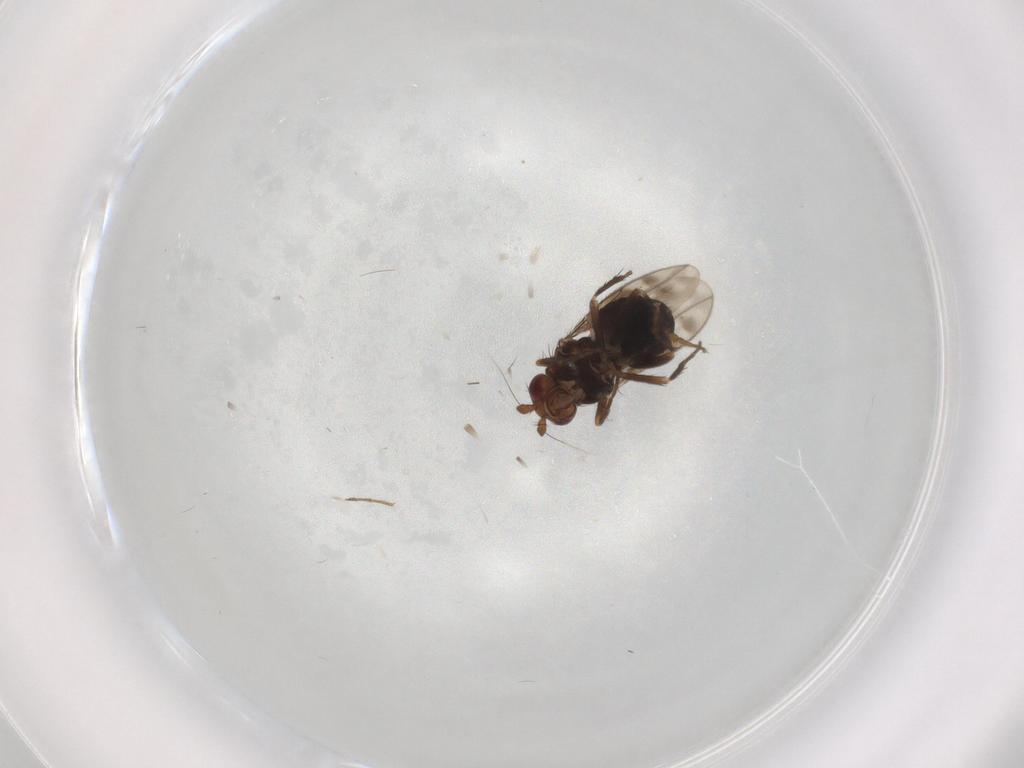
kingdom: Animalia
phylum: Arthropoda
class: Insecta
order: Diptera
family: Sphaeroceridae
